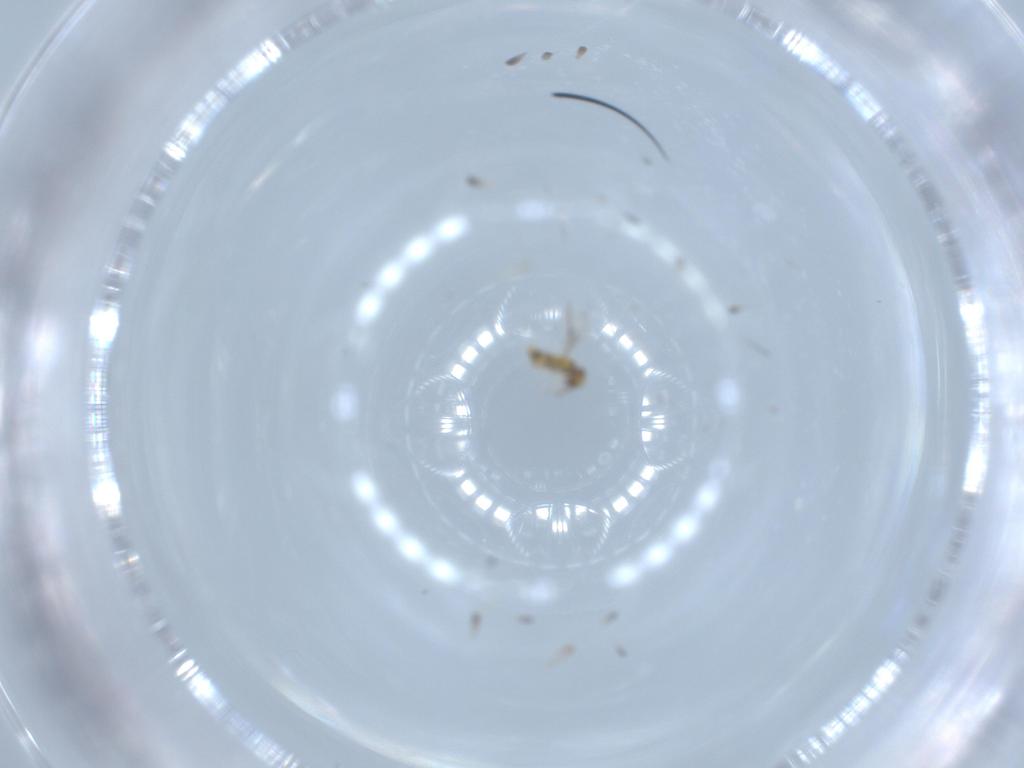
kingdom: Animalia
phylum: Arthropoda
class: Insecta
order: Hymenoptera
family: Aphelinidae
